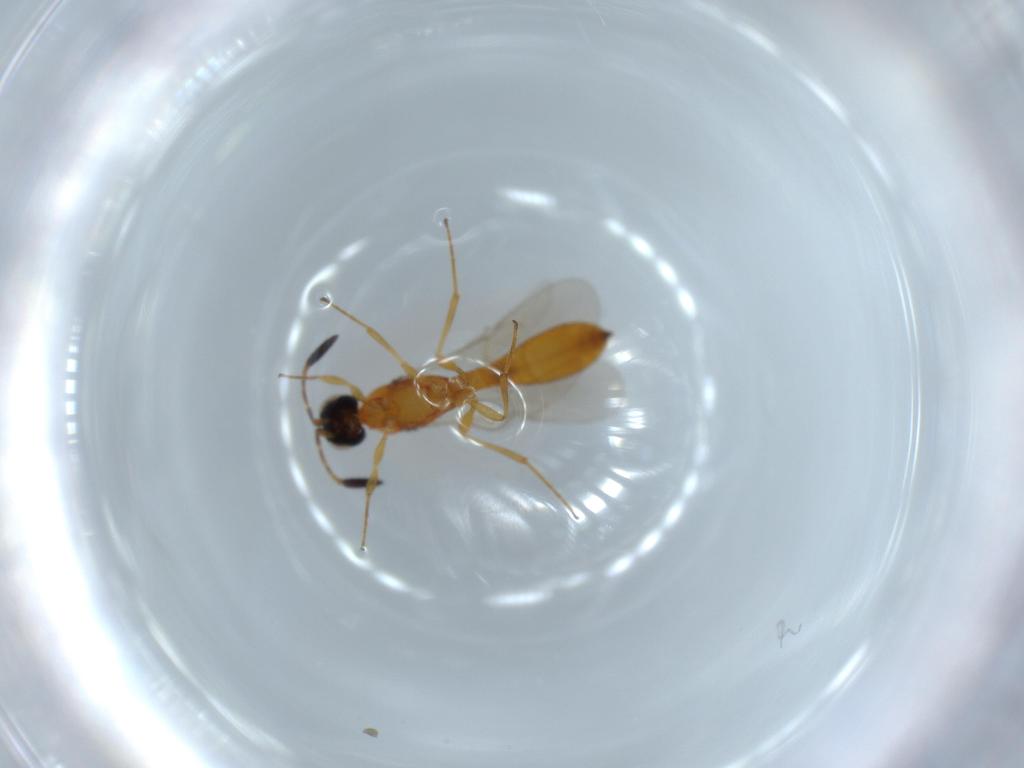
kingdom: Animalia
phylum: Arthropoda
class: Insecta
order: Hymenoptera
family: Scelionidae
